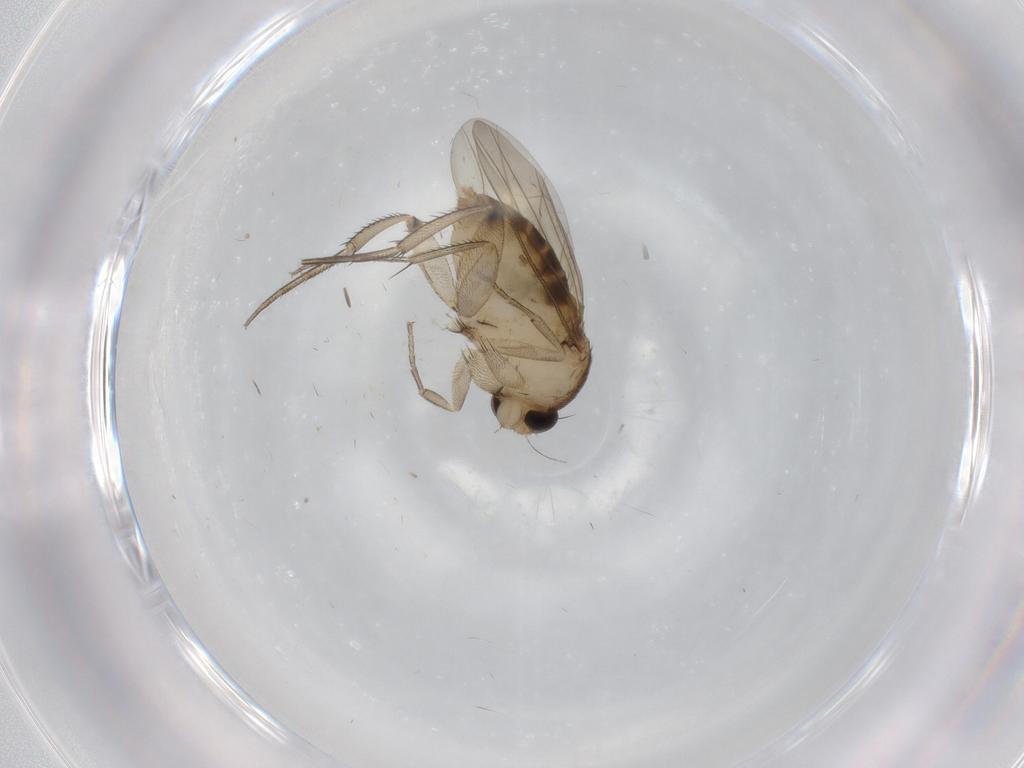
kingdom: Animalia
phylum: Arthropoda
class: Insecta
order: Diptera
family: Phoridae
